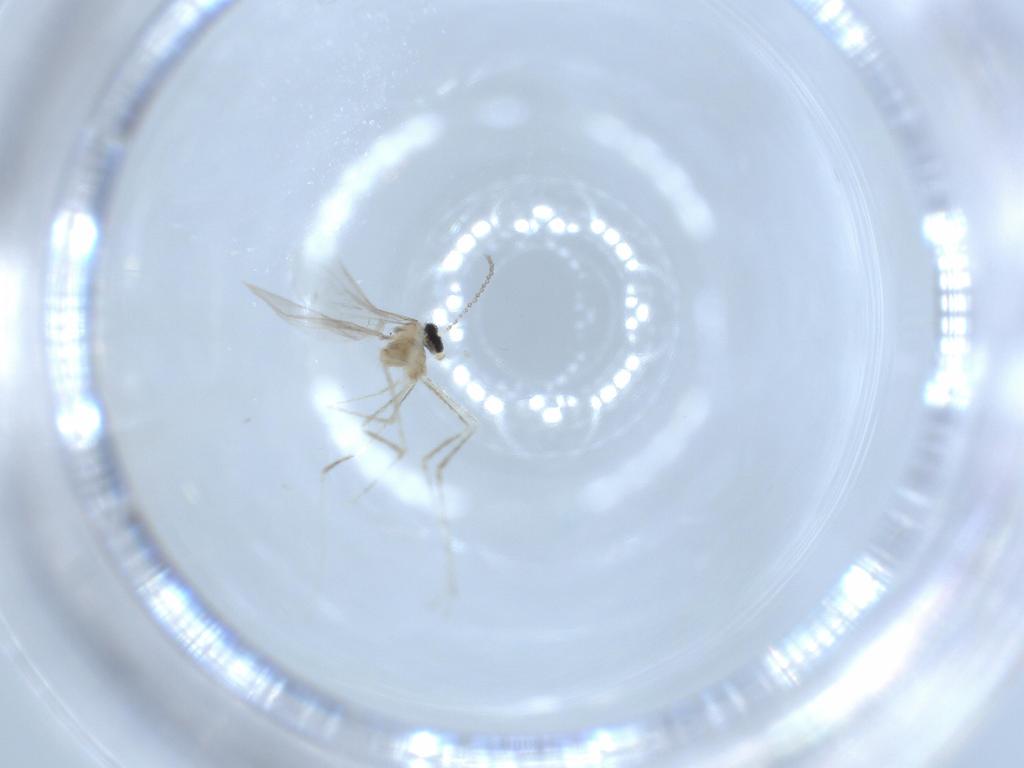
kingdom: Animalia
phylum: Arthropoda
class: Insecta
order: Diptera
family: Cecidomyiidae
